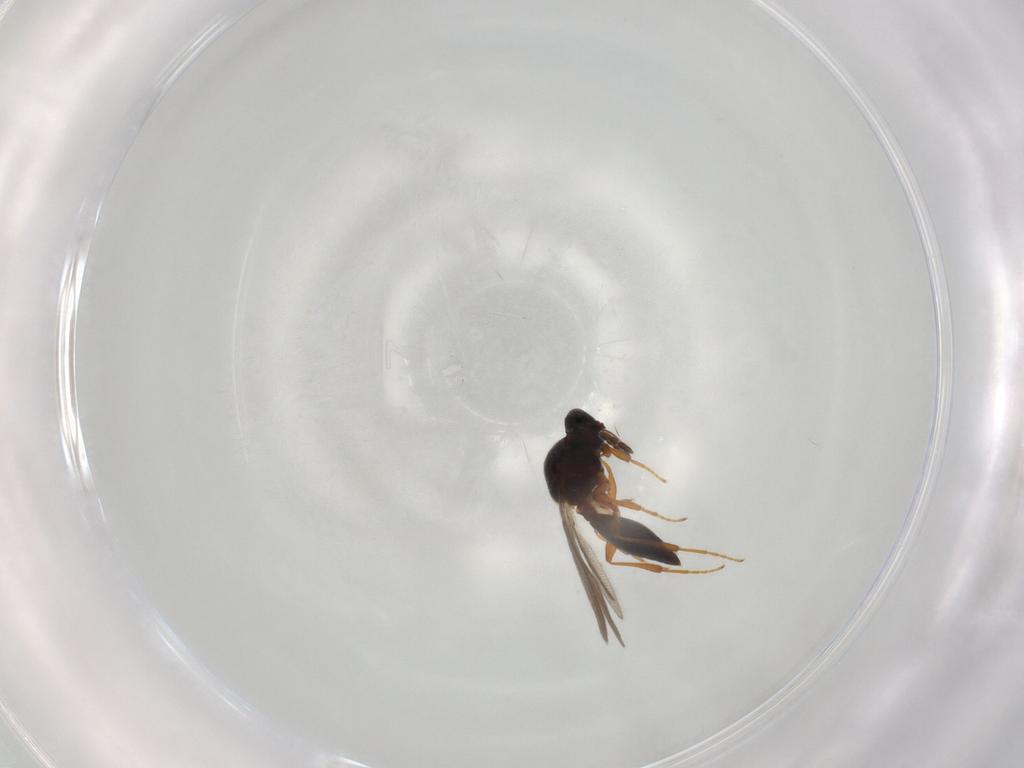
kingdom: Animalia
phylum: Arthropoda
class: Insecta
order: Hymenoptera
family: Platygastridae
